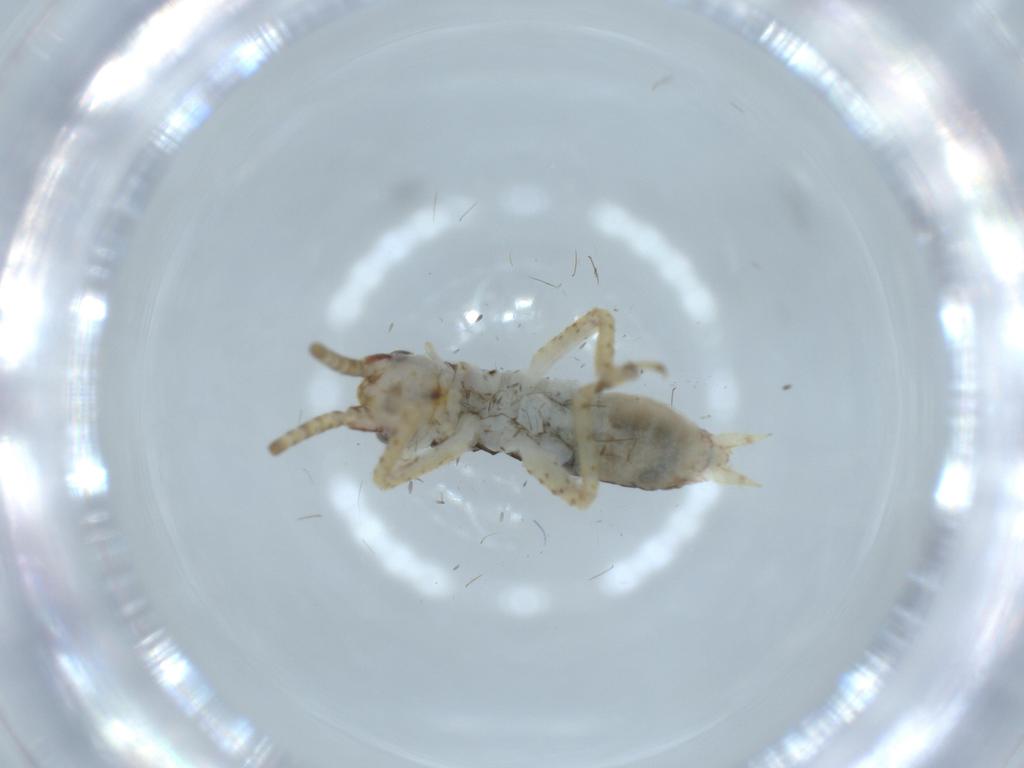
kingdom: Animalia
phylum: Arthropoda
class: Insecta
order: Orthoptera
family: Gryllidae
